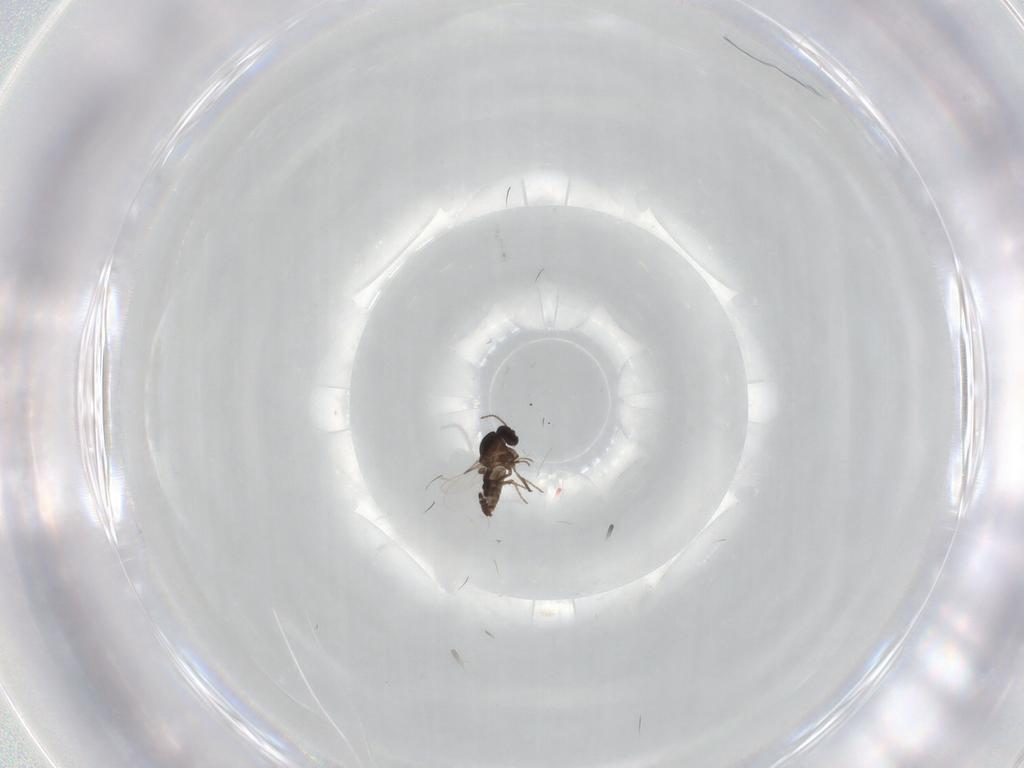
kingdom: Animalia
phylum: Arthropoda
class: Insecta
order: Diptera
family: Ceratopogonidae
